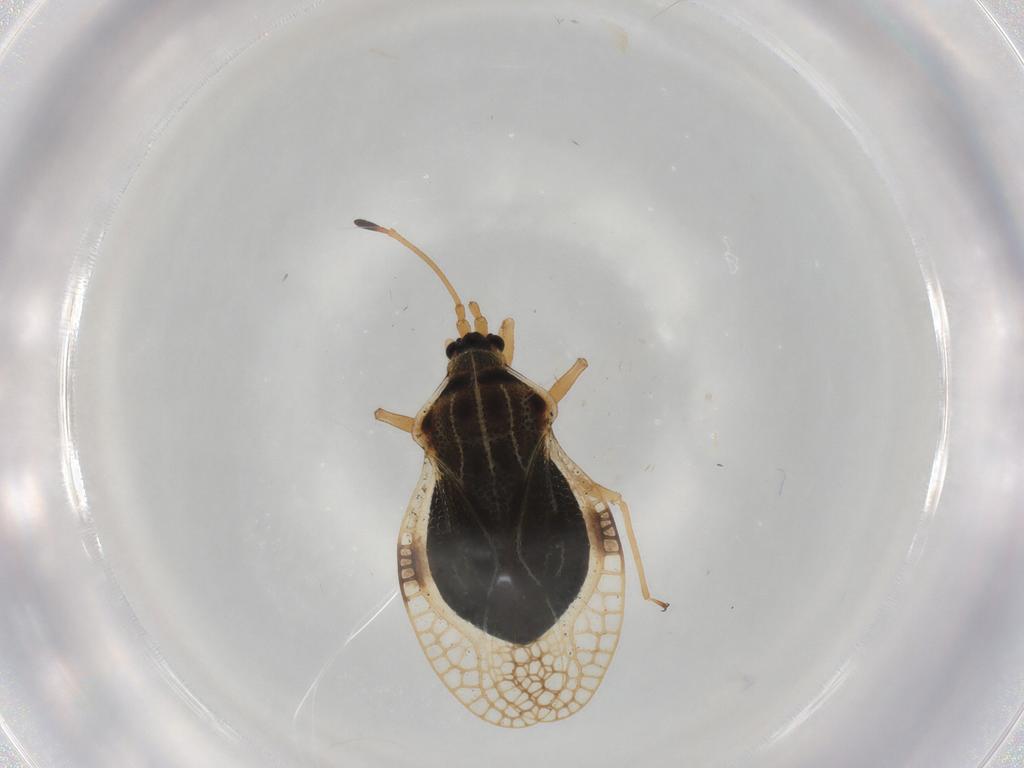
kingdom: Animalia
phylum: Arthropoda
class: Insecta
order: Hemiptera
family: Tingidae
